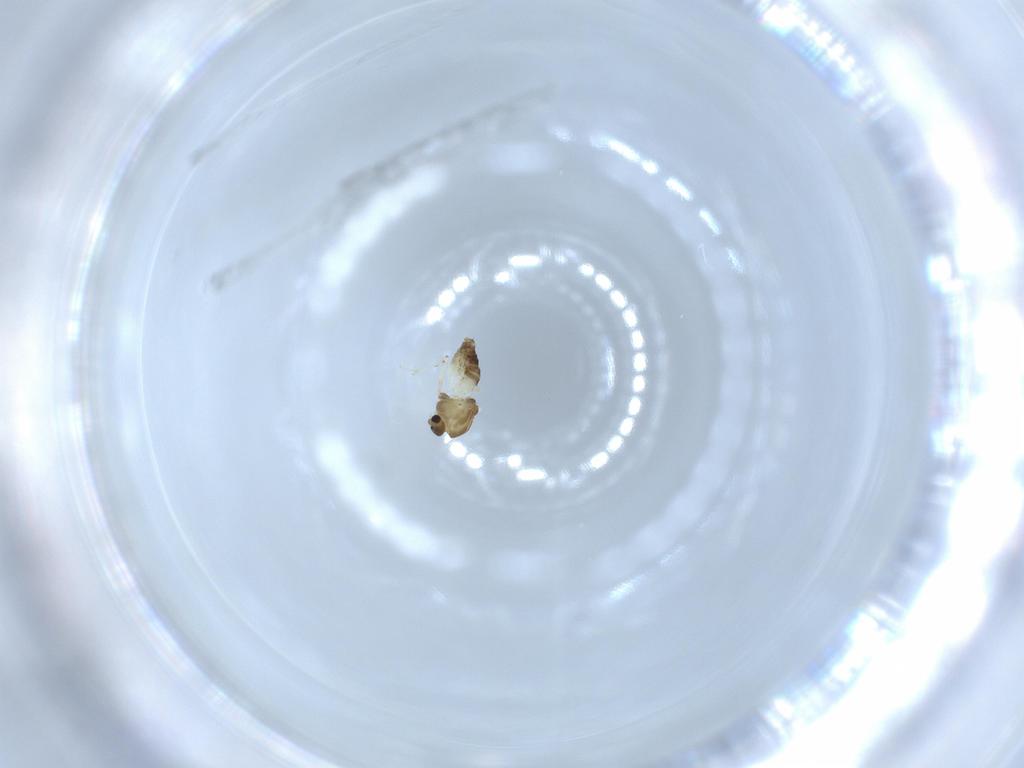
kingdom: Animalia
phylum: Arthropoda
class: Insecta
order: Diptera
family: Chironomidae
